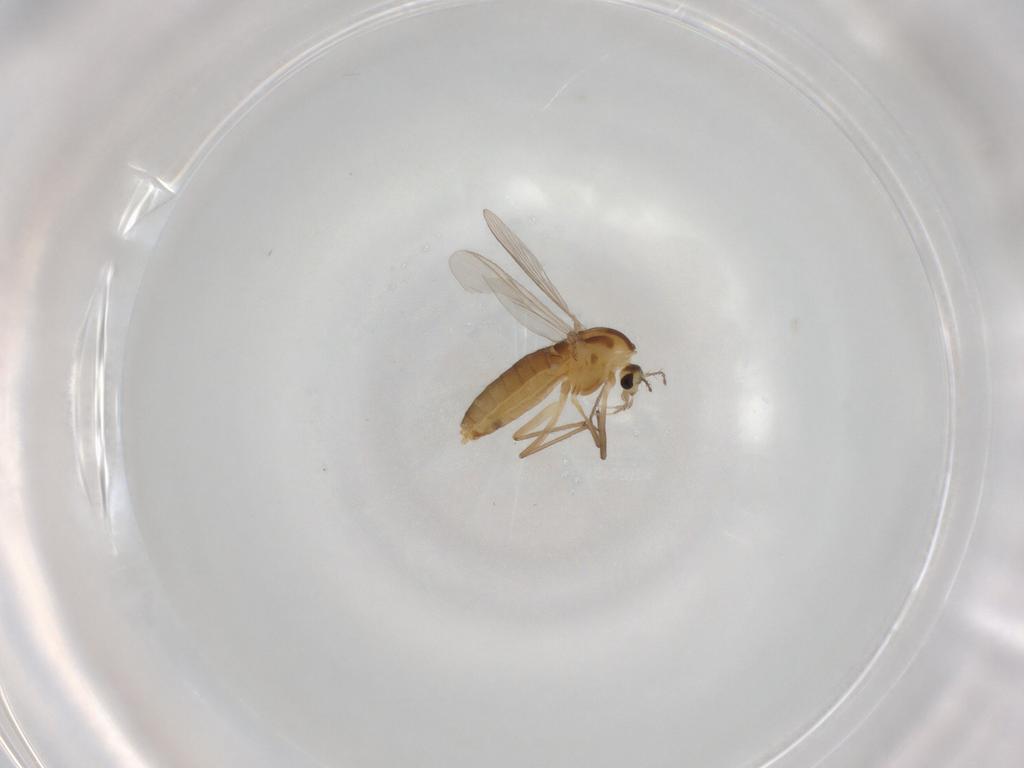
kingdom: Animalia
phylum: Arthropoda
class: Insecta
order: Diptera
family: Chironomidae
